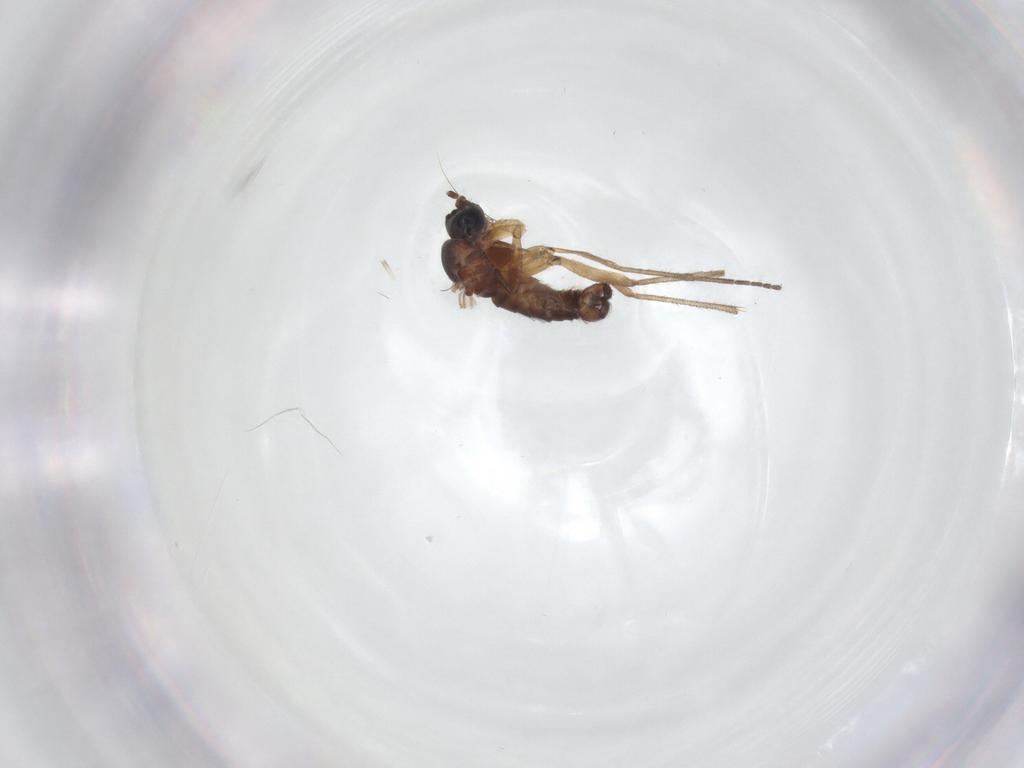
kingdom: Animalia
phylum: Arthropoda
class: Insecta
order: Diptera
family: Sciaridae
